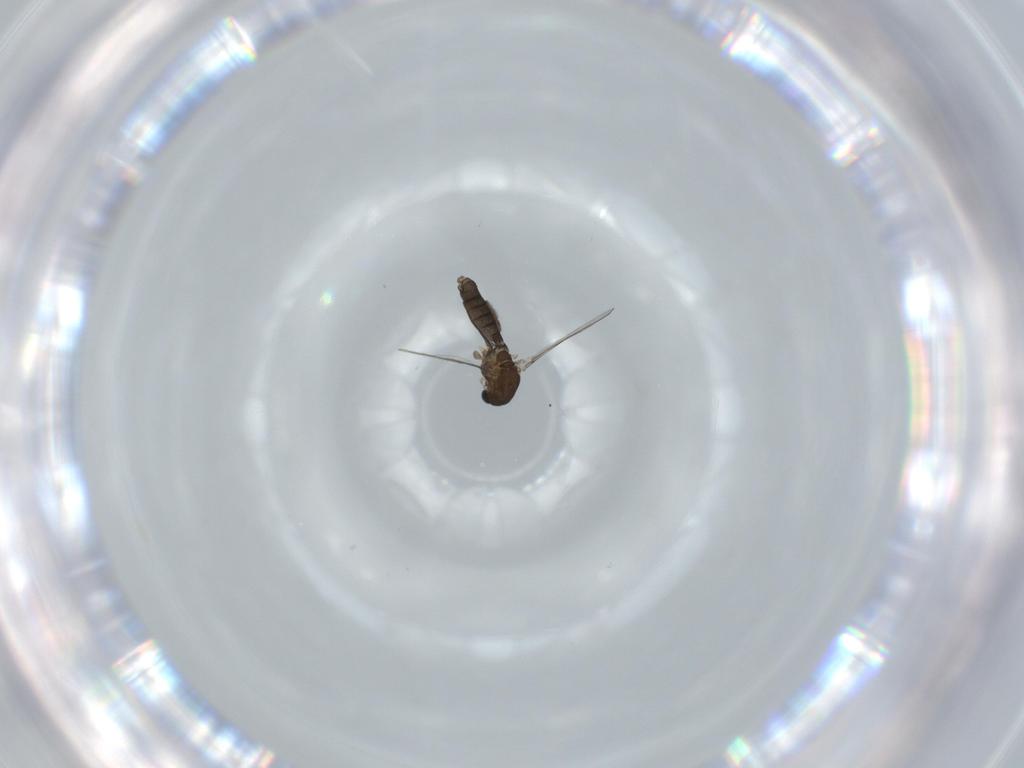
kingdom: Animalia
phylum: Arthropoda
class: Insecta
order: Diptera
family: Chironomidae
